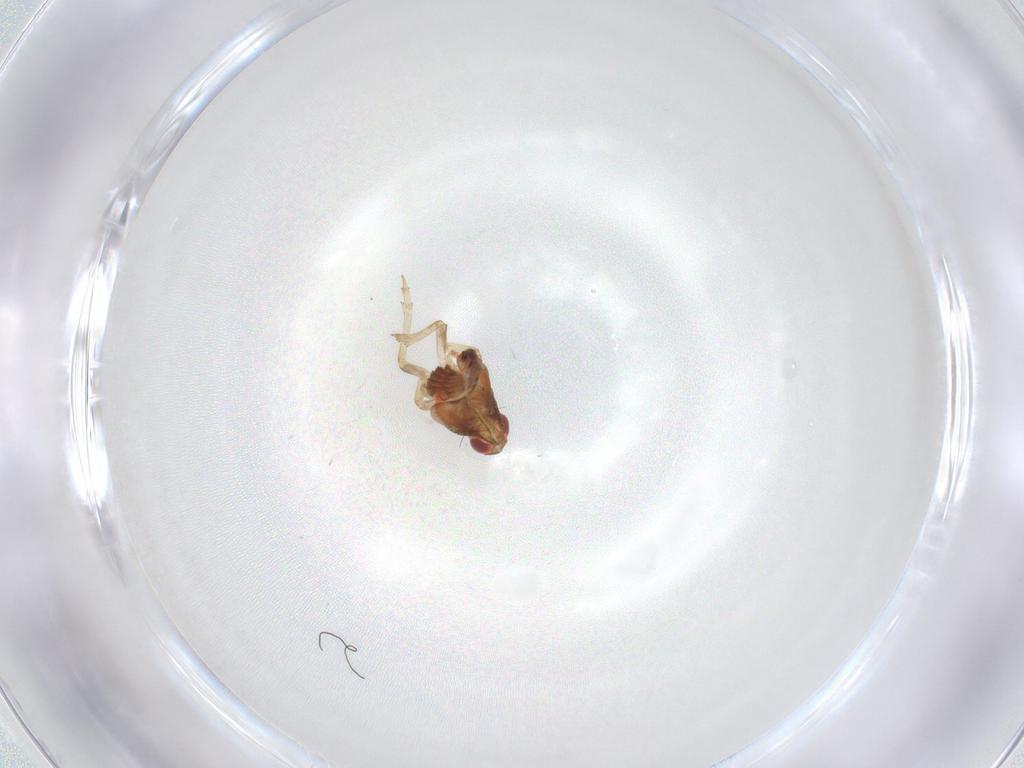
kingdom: Animalia
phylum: Arthropoda
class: Insecta
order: Hemiptera
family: Issidae
